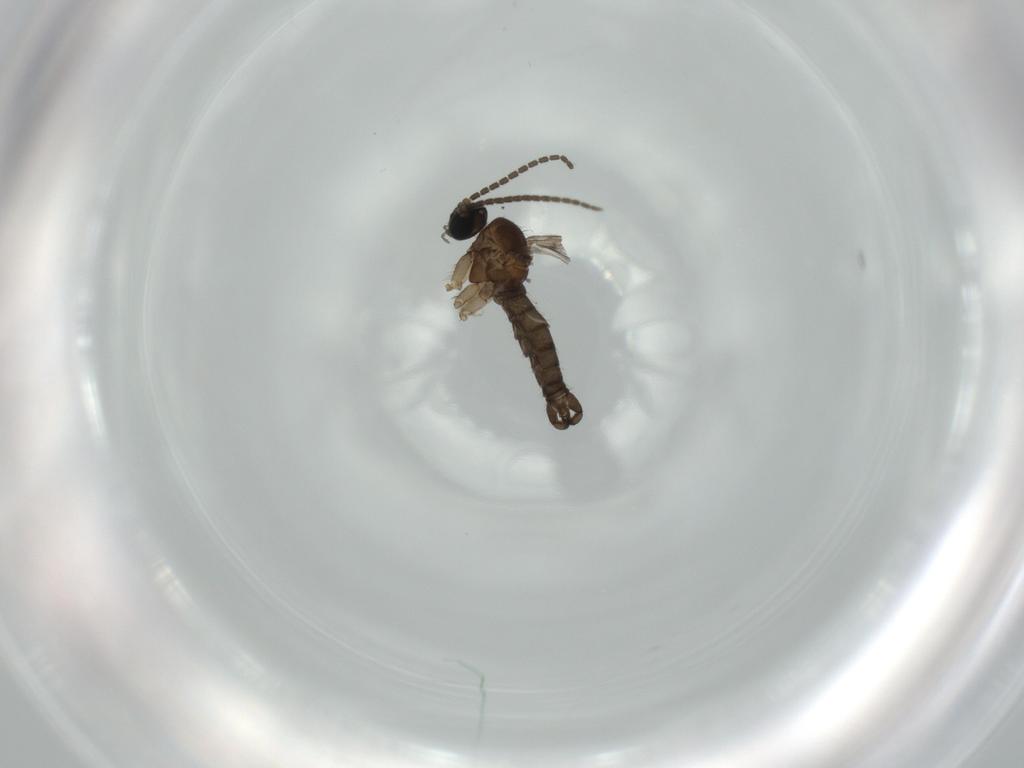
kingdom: Animalia
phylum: Arthropoda
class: Insecta
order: Diptera
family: Sciaridae
